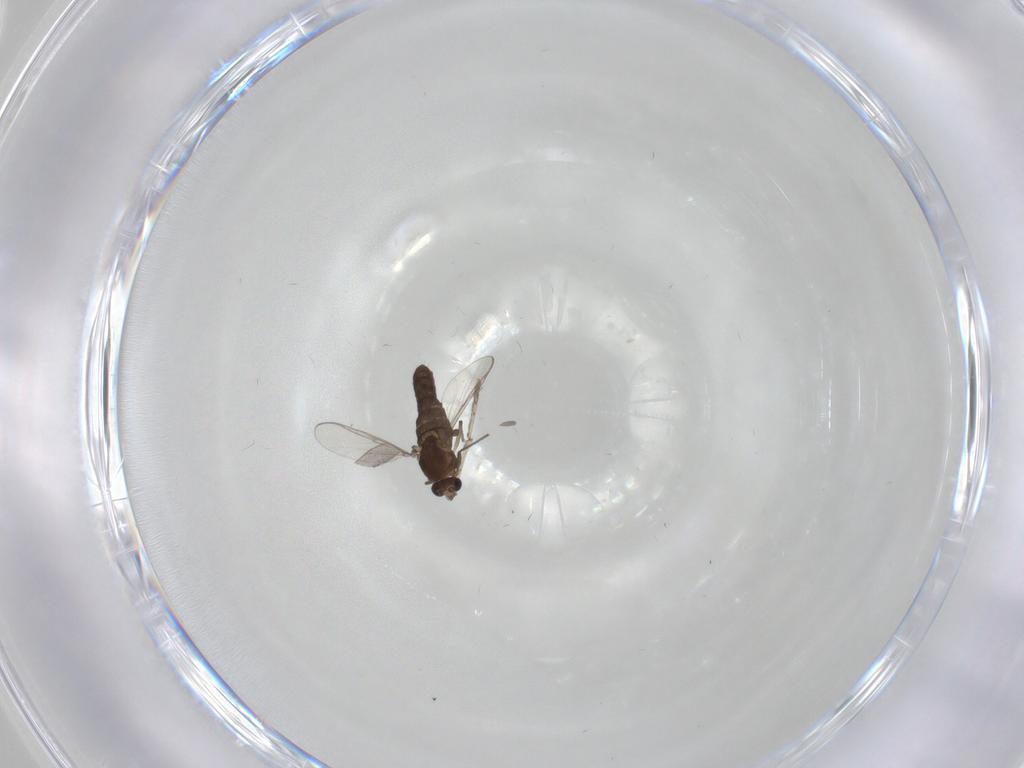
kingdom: Animalia
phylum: Arthropoda
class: Insecta
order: Diptera
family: Chironomidae
